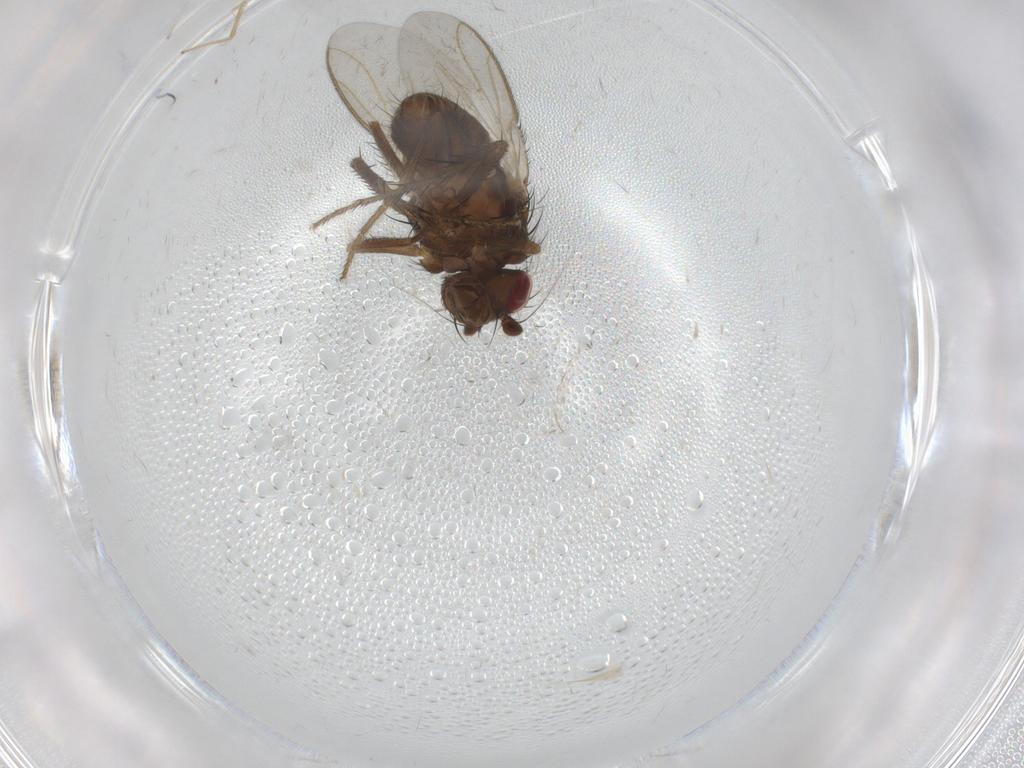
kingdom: Animalia
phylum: Arthropoda
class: Insecta
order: Diptera
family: Sphaeroceridae
